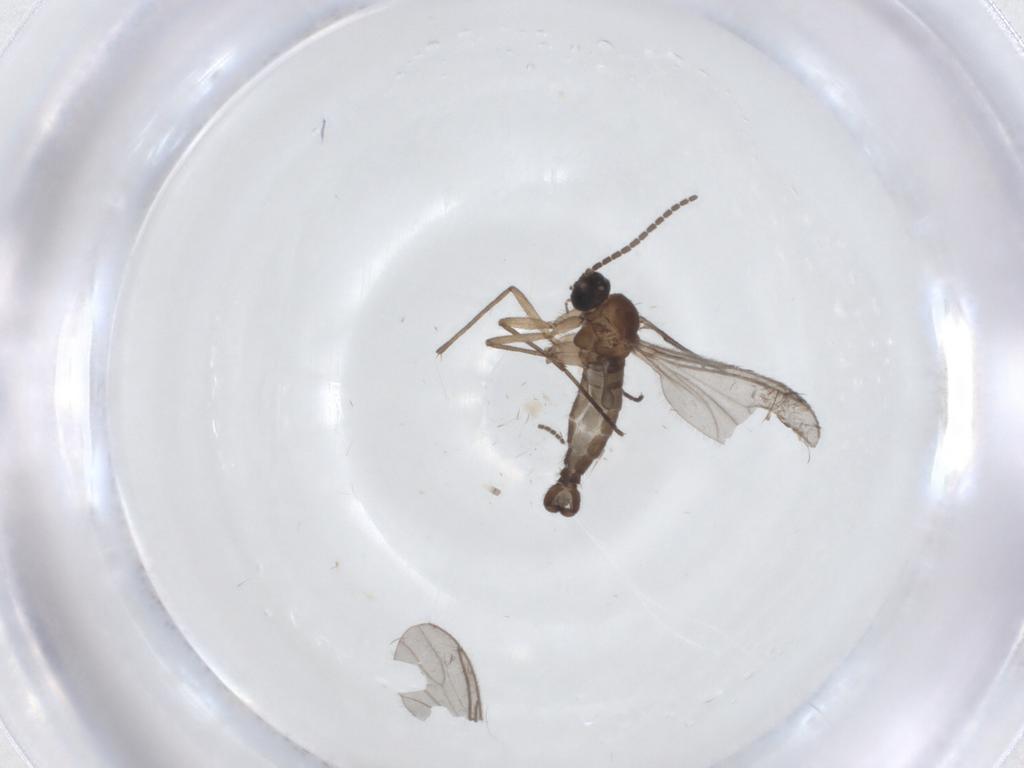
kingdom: Animalia
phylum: Arthropoda
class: Insecta
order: Diptera
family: Sciaridae
